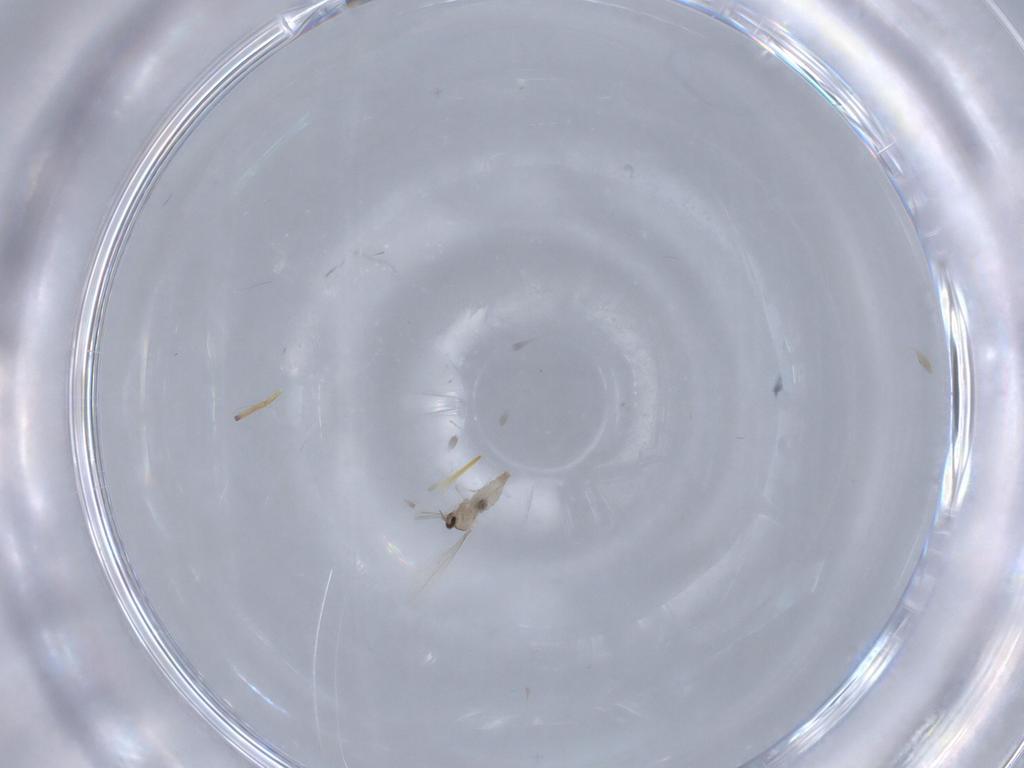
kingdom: Animalia
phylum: Arthropoda
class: Insecta
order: Diptera
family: Cecidomyiidae
